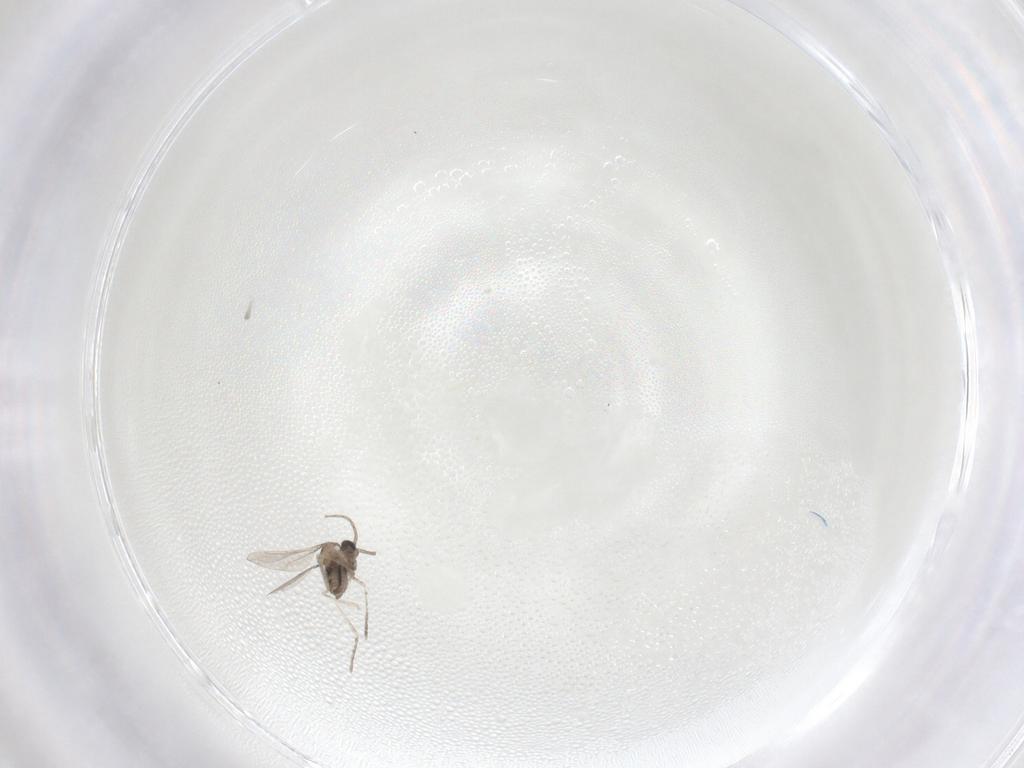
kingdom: Animalia
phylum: Arthropoda
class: Insecta
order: Diptera
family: Cecidomyiidae
